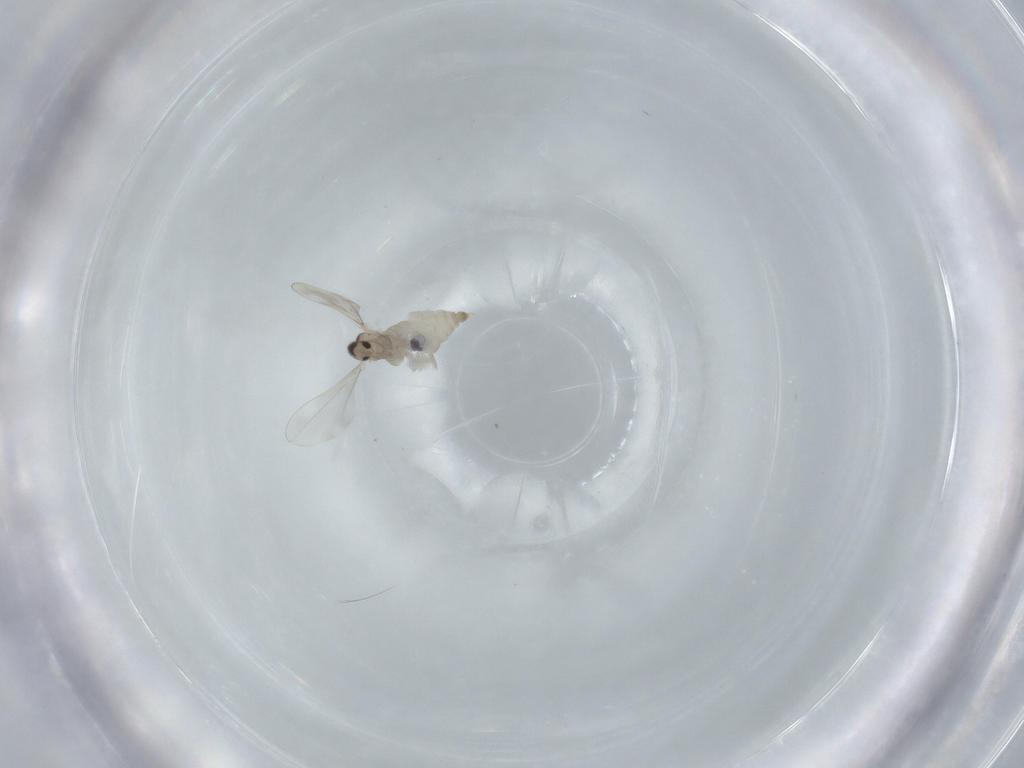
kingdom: Animalia
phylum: Arthropoda
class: Insecta
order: Diptera
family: Cecidomyiidae
